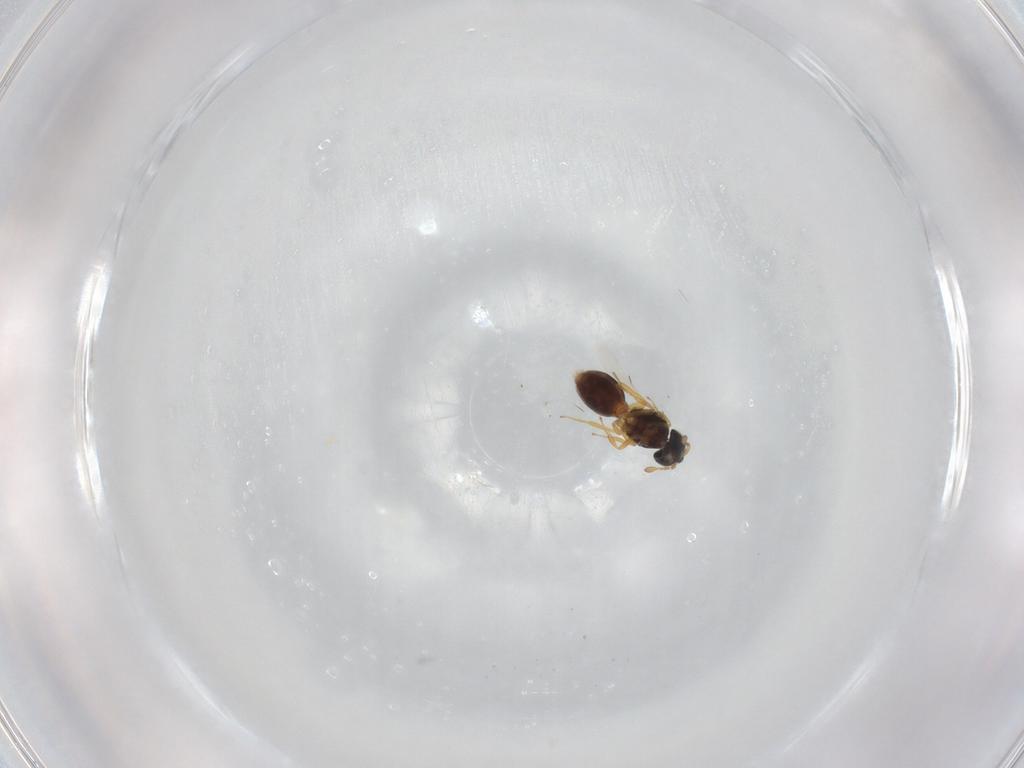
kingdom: Animalia
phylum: Arthropoda
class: Insecta
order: Hymenoptera
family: Scelionidae
